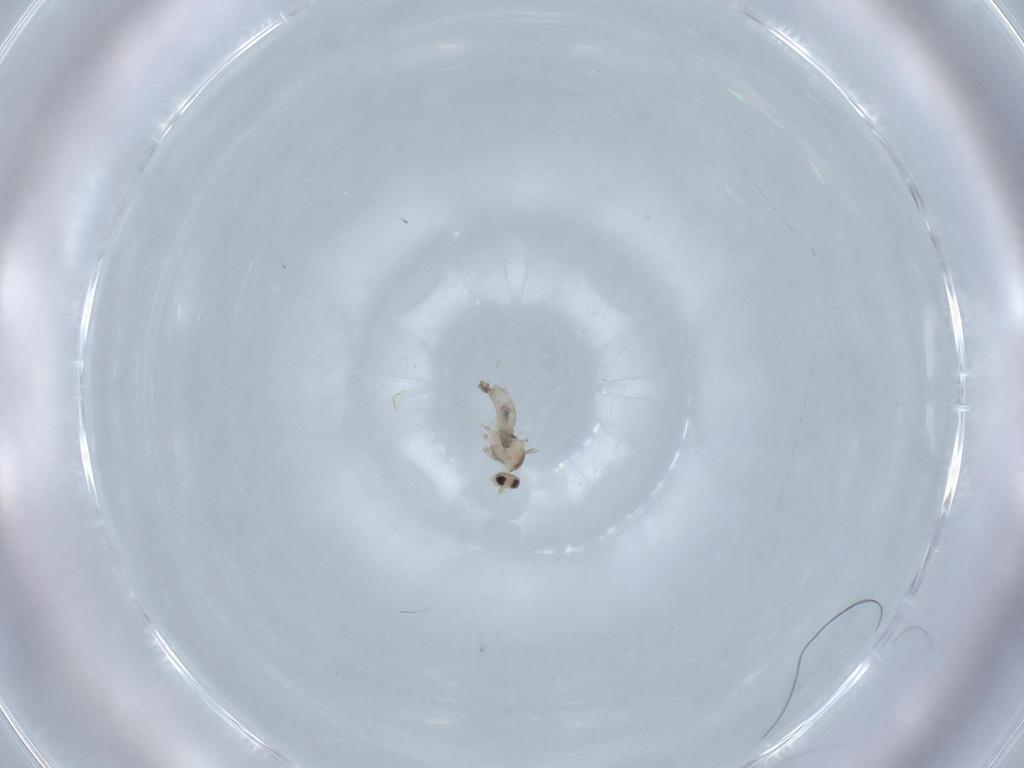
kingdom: Animalia
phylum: Arthropoda
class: Insecta
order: Diptera
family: Cecidomyiidae
